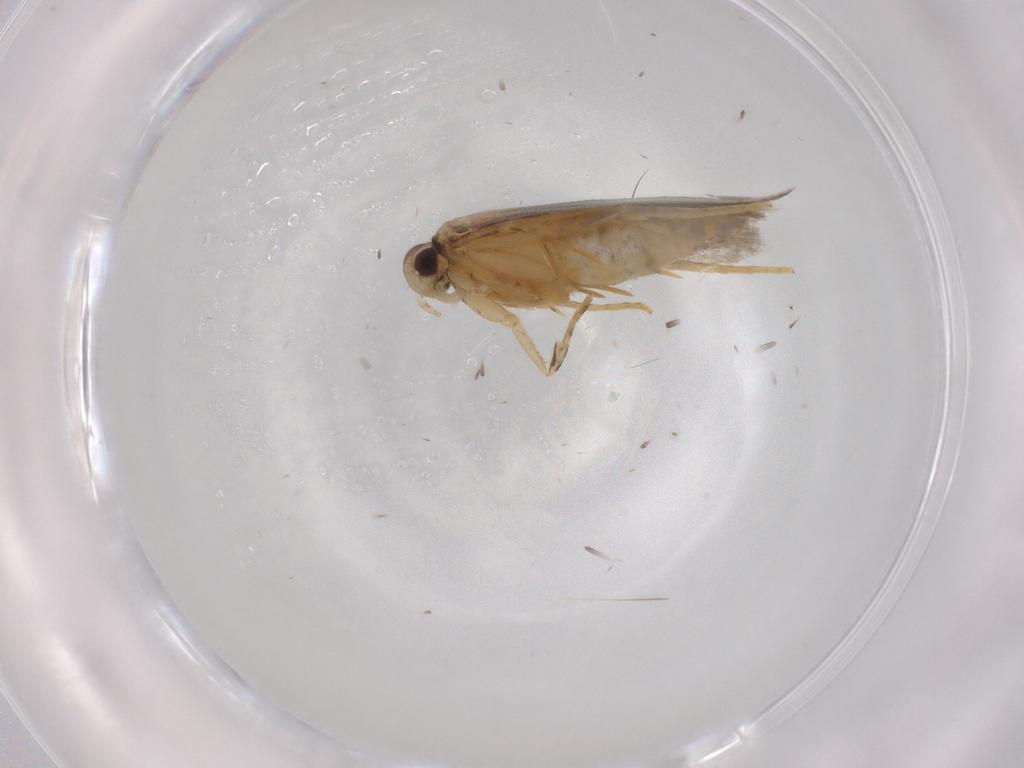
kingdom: Animalia
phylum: Arthropoda
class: Insecta
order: Lepidoptera
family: Autostichidae
